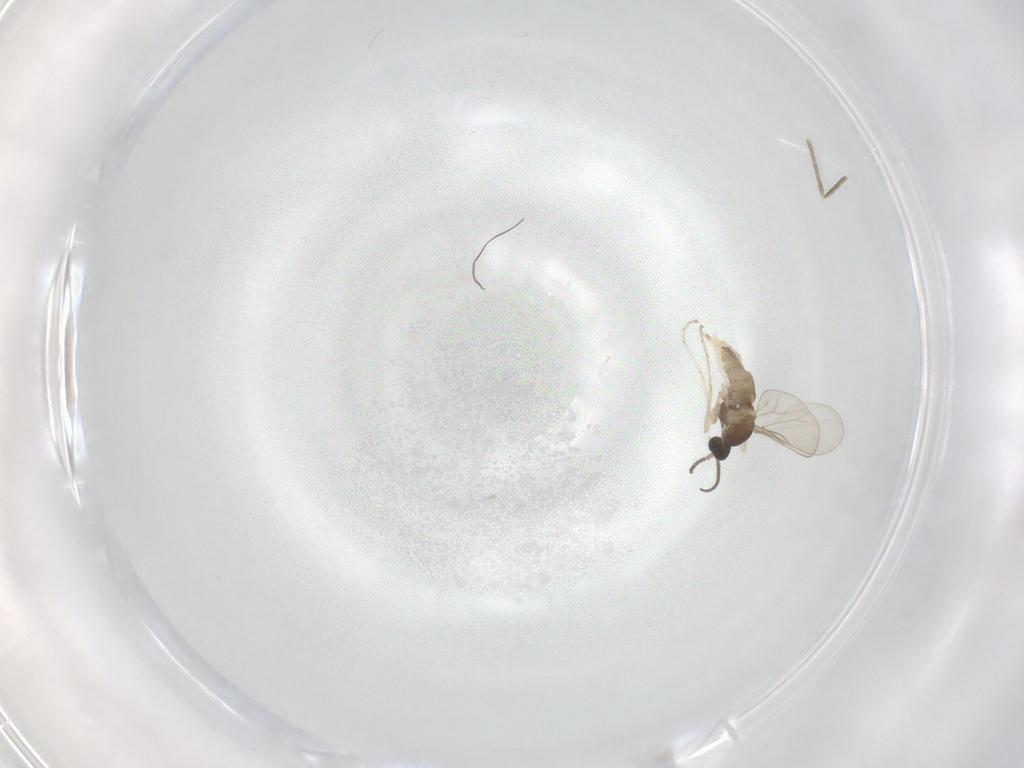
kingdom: Animalia
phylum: Arthropoda
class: Insecta
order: Diptera
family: Cecidomyiidae
